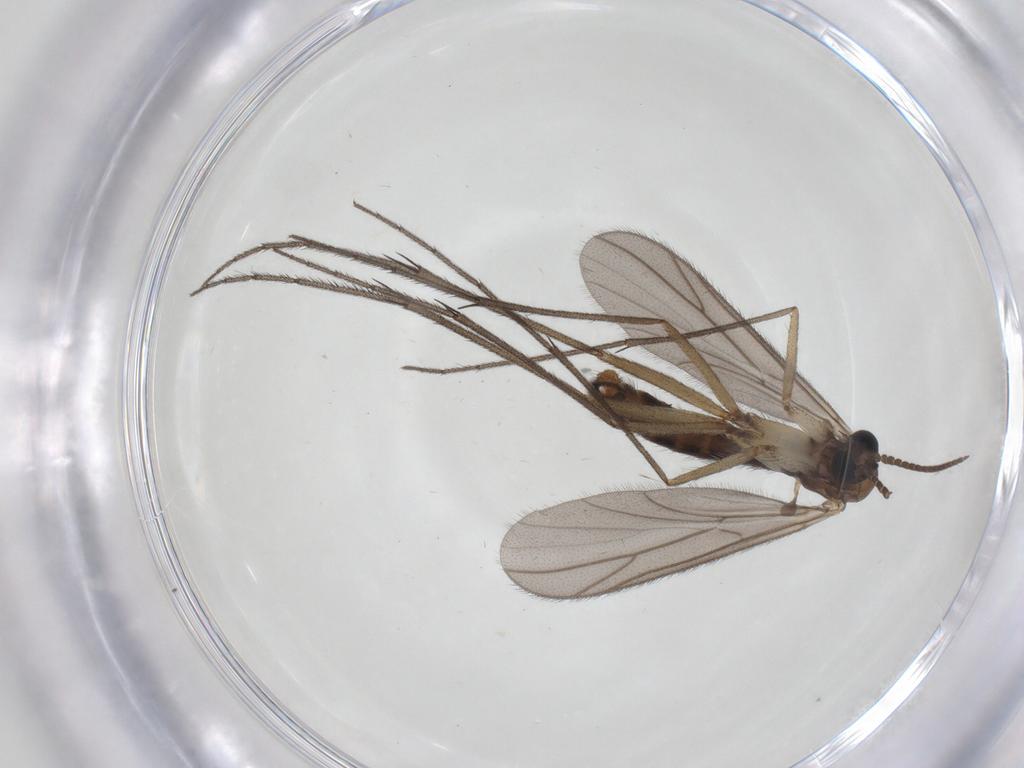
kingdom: Animalia
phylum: Arthropoda
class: Insecta
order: Diptera
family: Ditomyiidae
